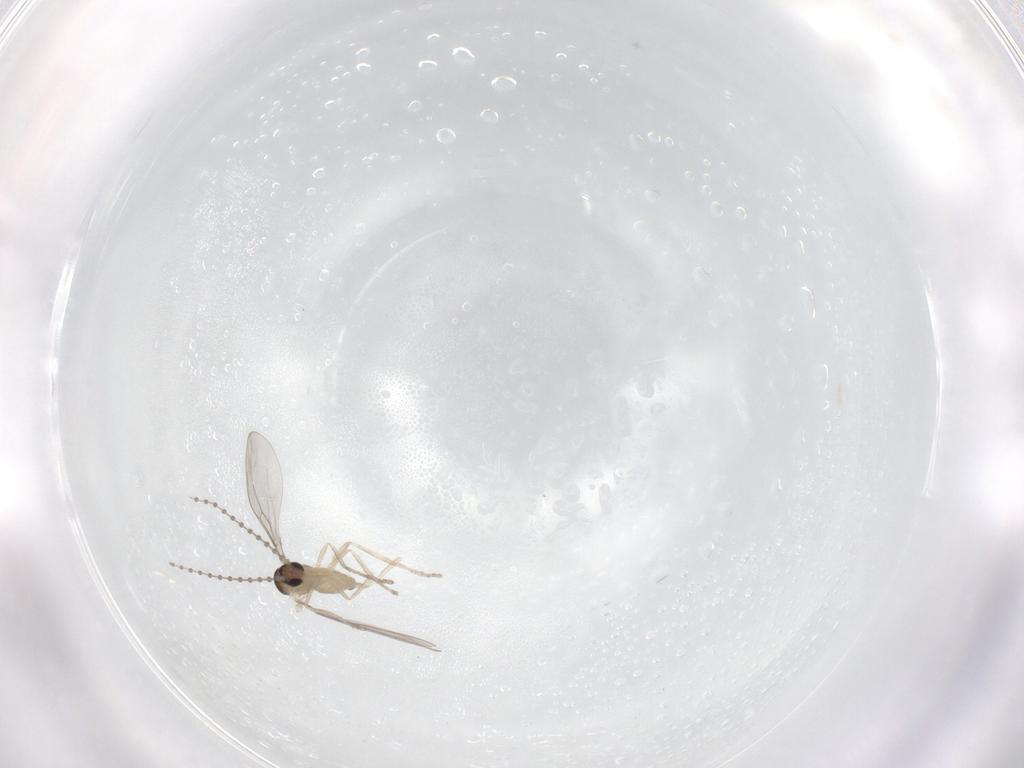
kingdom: Animalia
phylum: Arthropoda
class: Insecta
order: Diptera
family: Cecidomyiidae
